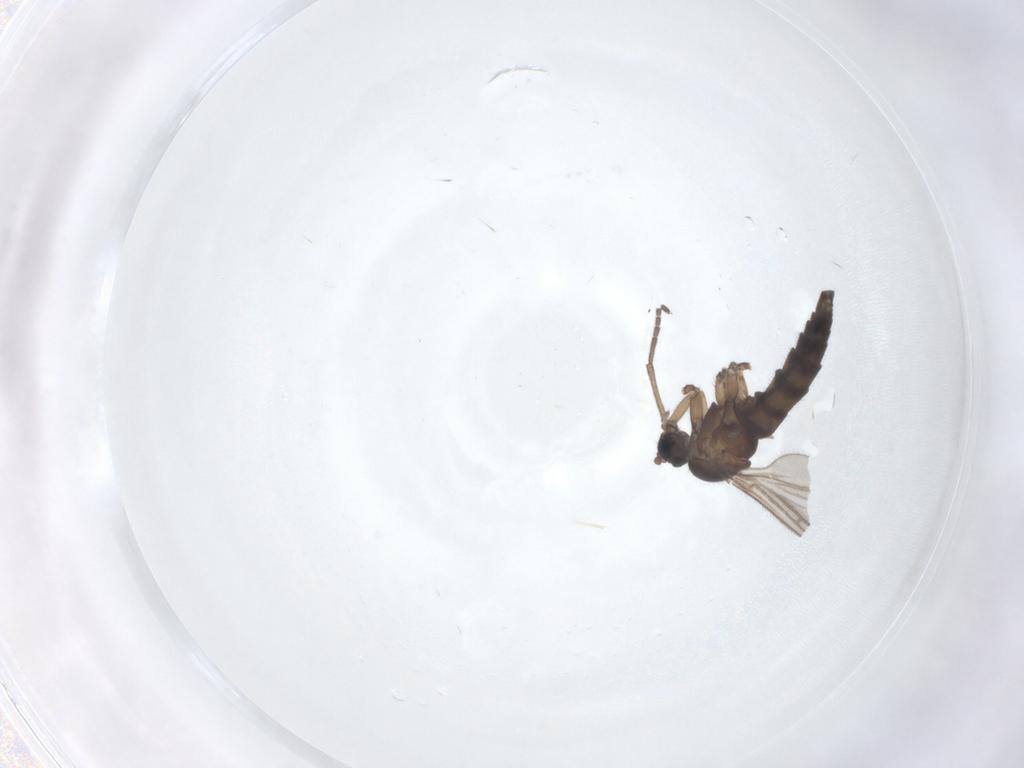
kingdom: Animalia
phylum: Arthropoda
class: Insecta
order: Diptera
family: Sciaridae
